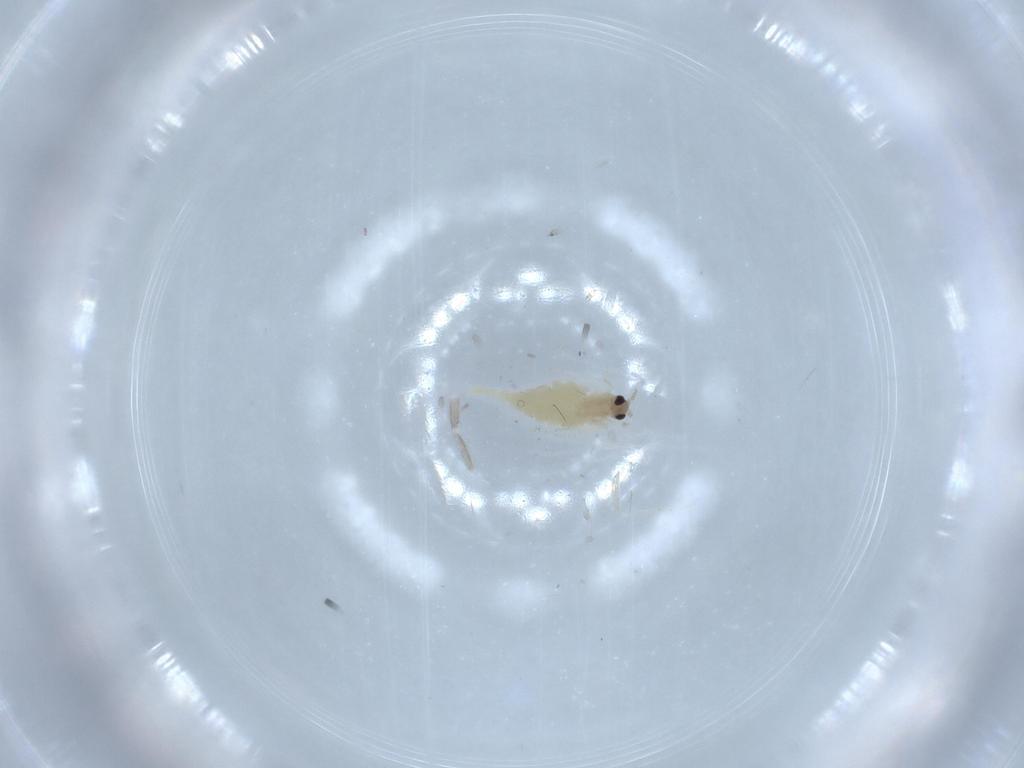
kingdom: Animalia
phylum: Arthropoda
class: Insecta
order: Diptera
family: Cecidomyiidae
